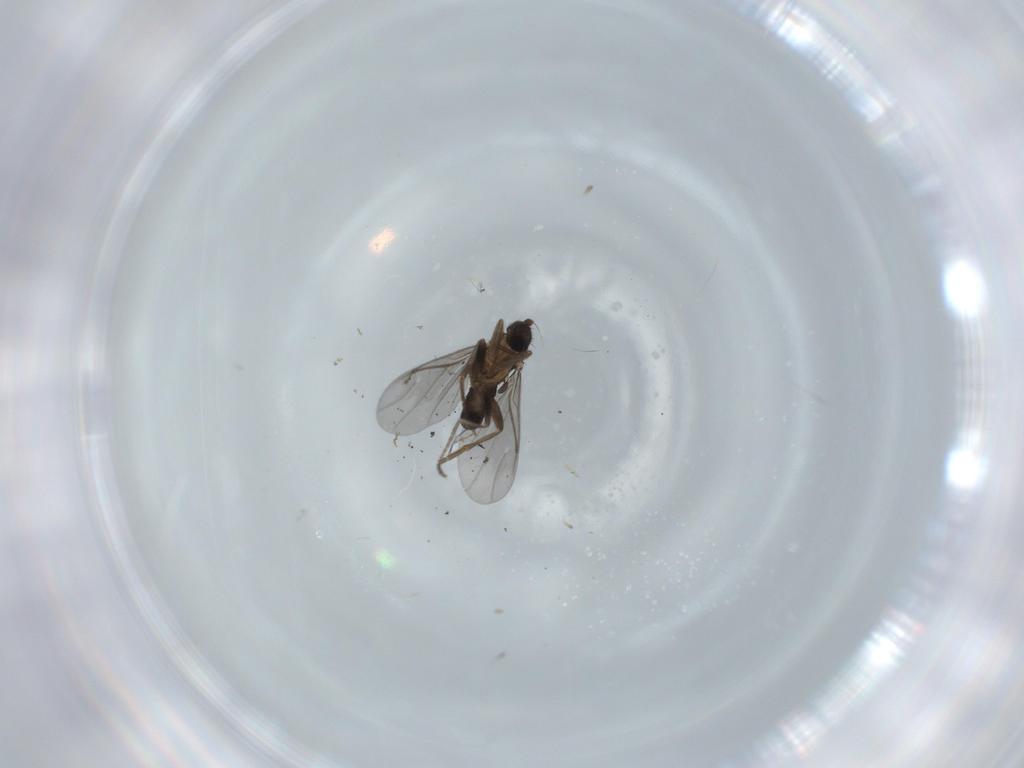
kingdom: Animalia
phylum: Arthropoda
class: Insecta
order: Diptera
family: Phoridae
